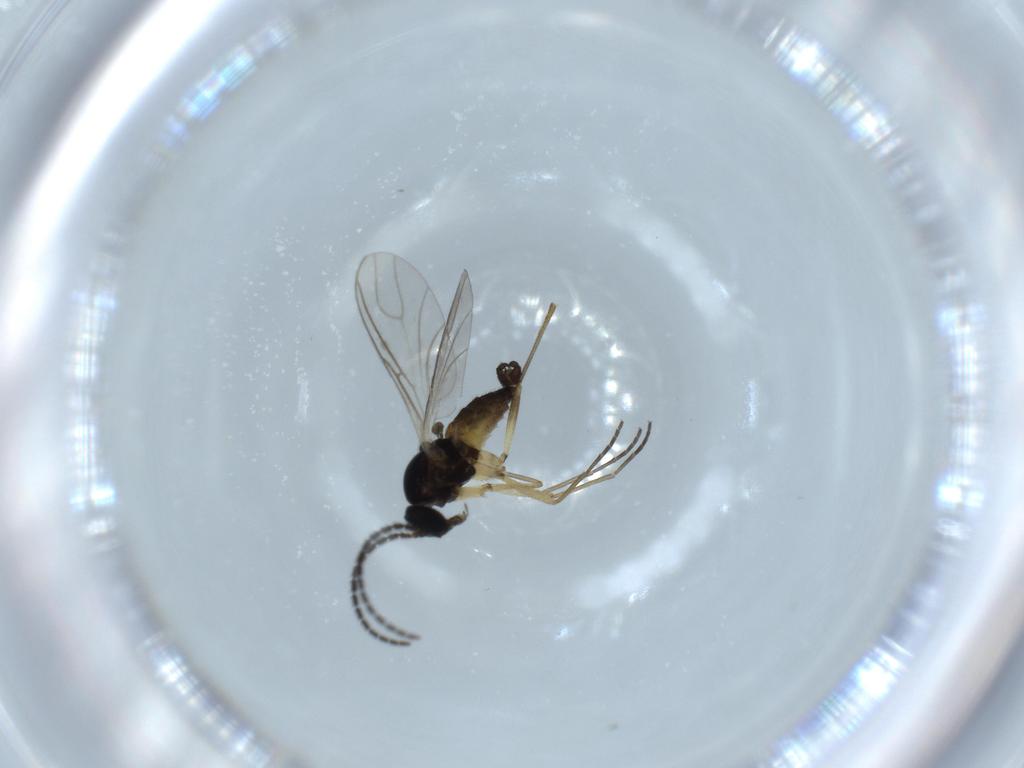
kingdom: Animalia
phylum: Arthropoda
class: Insecta
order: Diptera
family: Sciaridae
